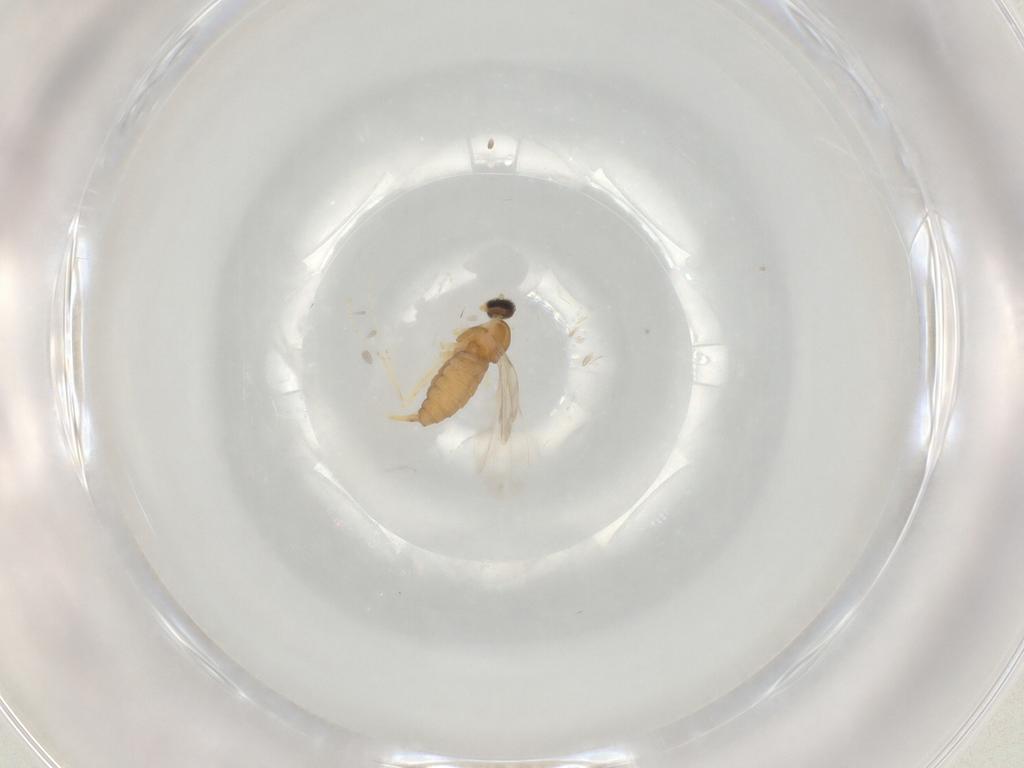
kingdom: Animalia
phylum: Arthropoda
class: Insecta
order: Diptera
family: Cecidomyiidae
